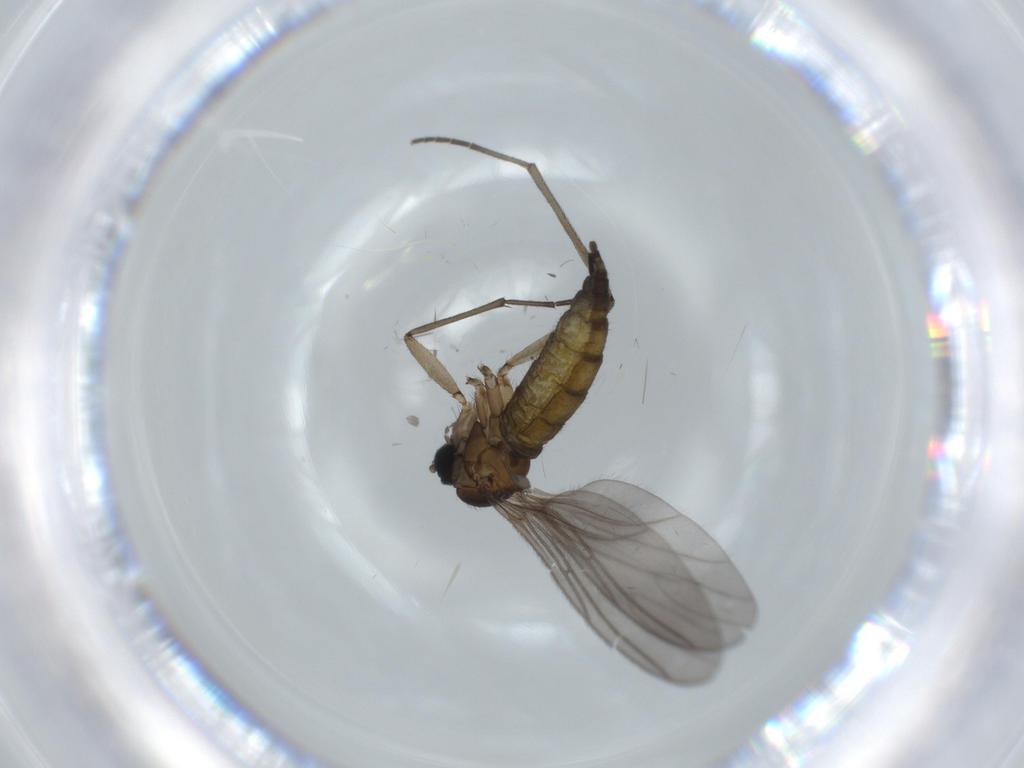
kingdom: Animalia
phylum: Arthropoda
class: Insecta
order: Diptera
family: Sciaridae
